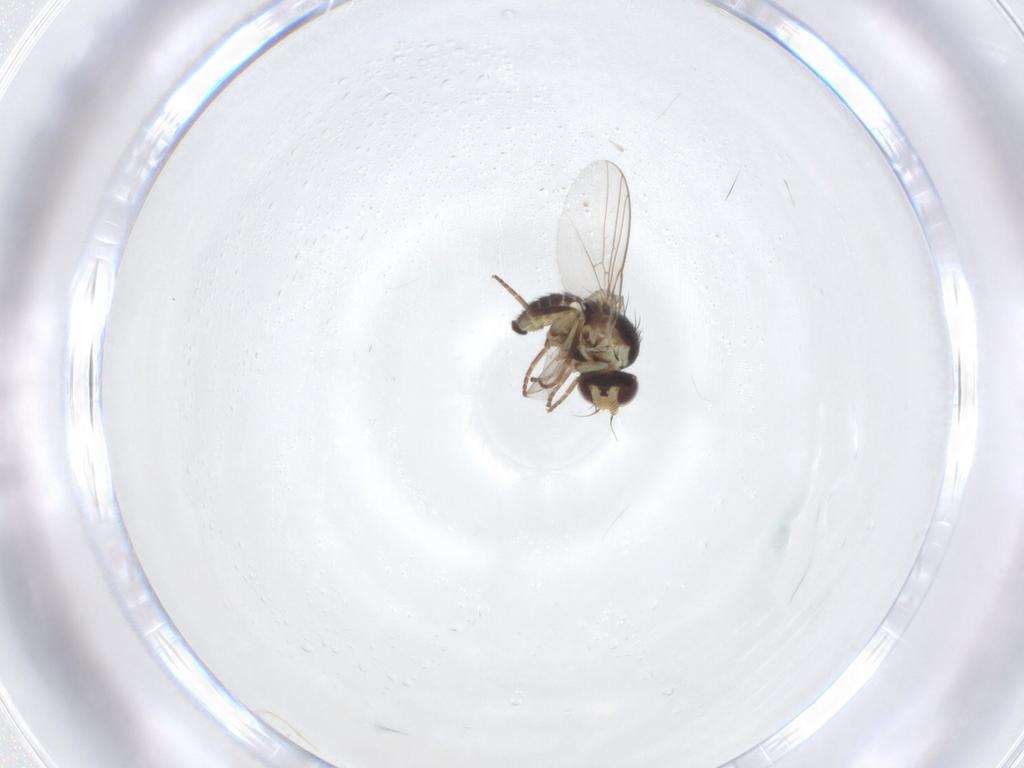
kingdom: Animalia
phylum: Arthropoda
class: Insecta
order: Diptera
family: Agromyzidae
